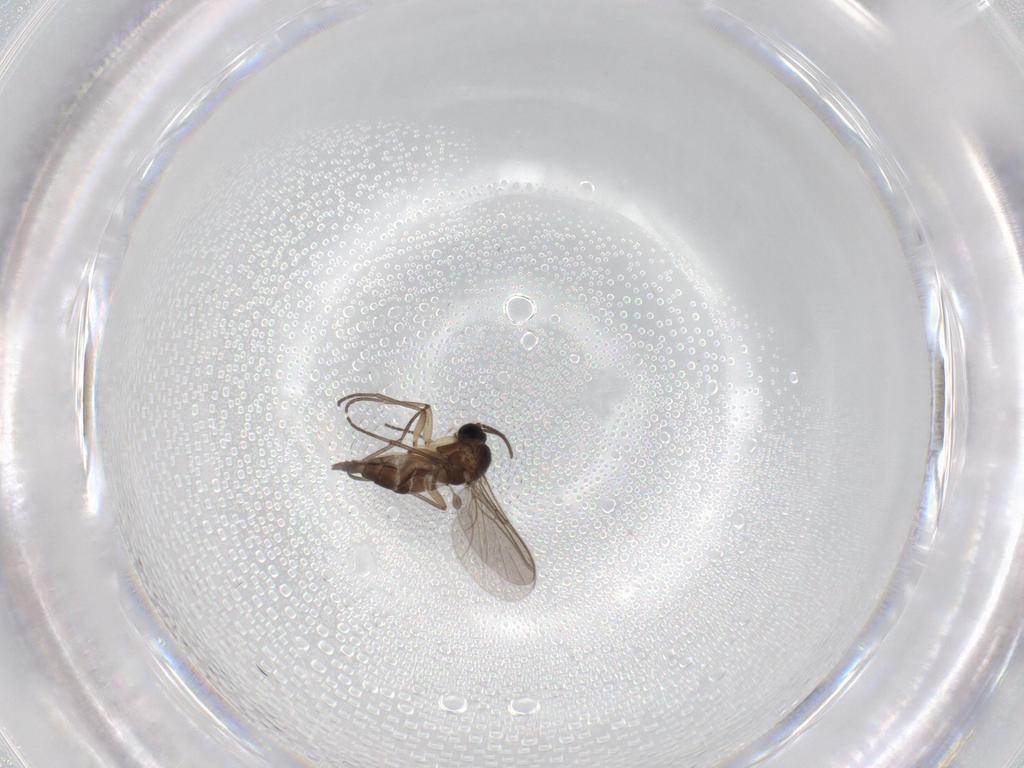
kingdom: Animalia
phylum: Arthropoda
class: Insecta
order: Diptera
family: Sciaridae
